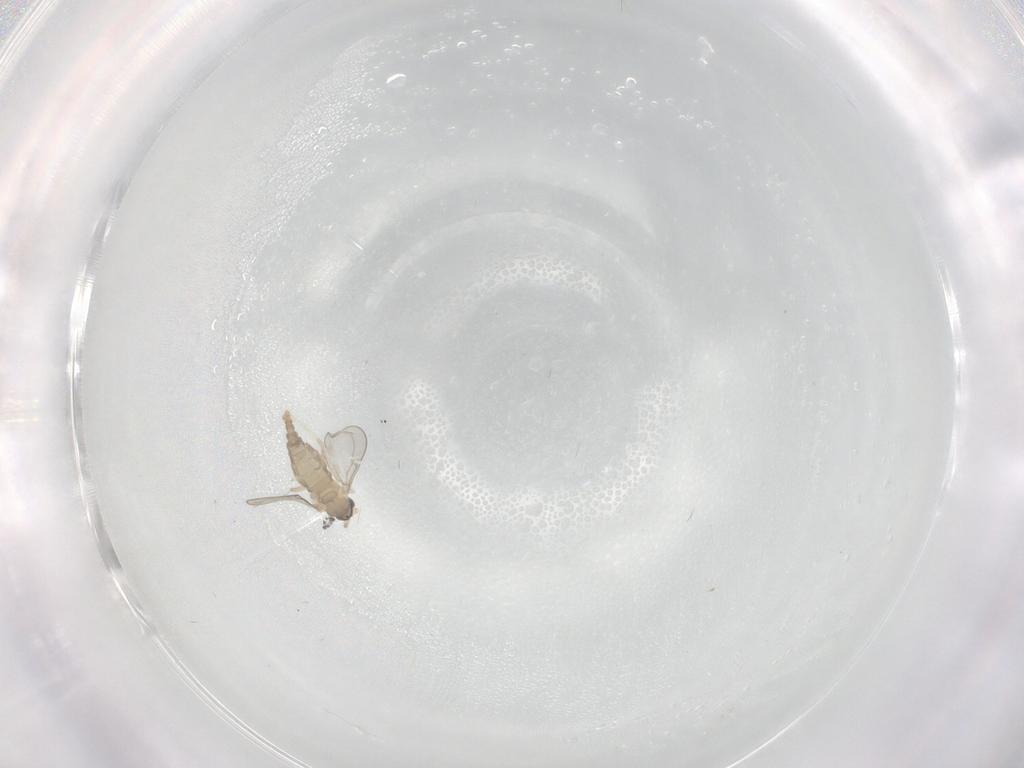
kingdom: Animalia
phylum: Arthropoda
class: Insecta
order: Diptera
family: Cecidomyiidae
